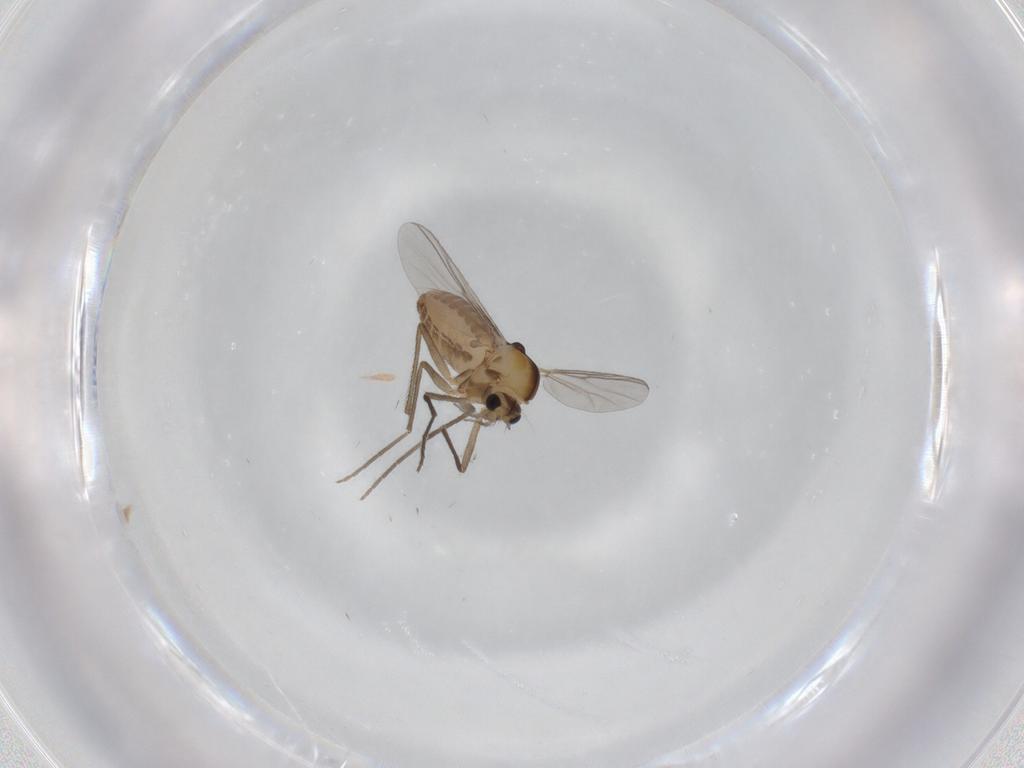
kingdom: Animalia
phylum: Arthropoda
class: Insecta
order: Diptera
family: Chironomidae
